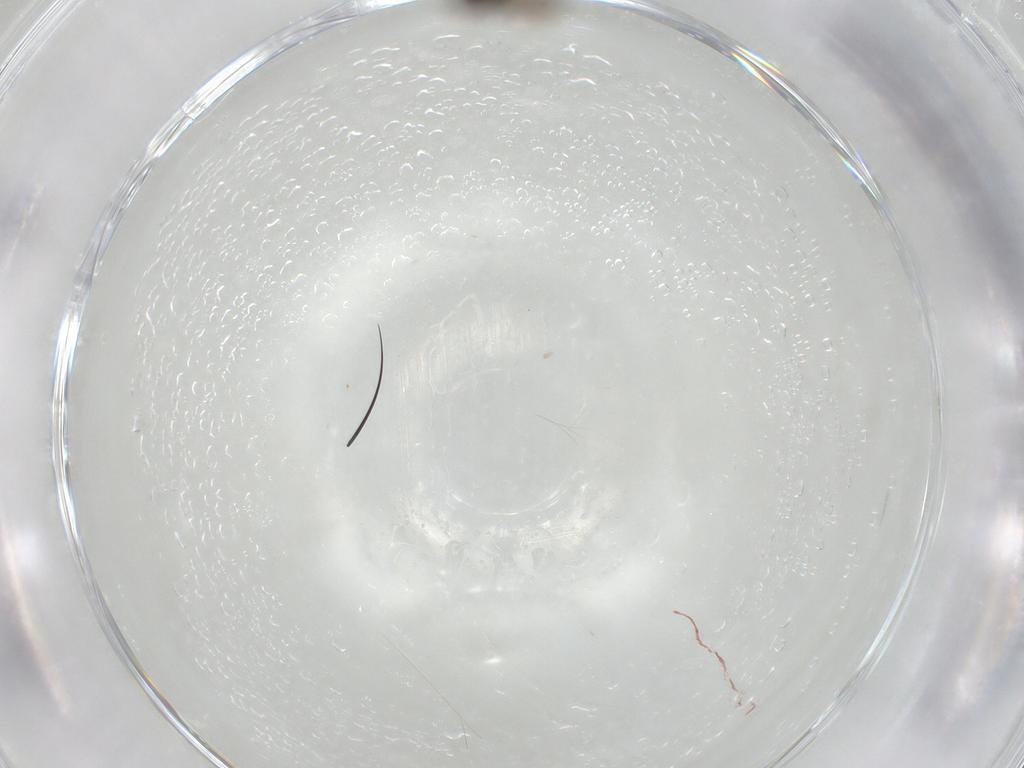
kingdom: Animalia
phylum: Arthropoda
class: Insecta
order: Hymenoptera
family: Mymaridae
